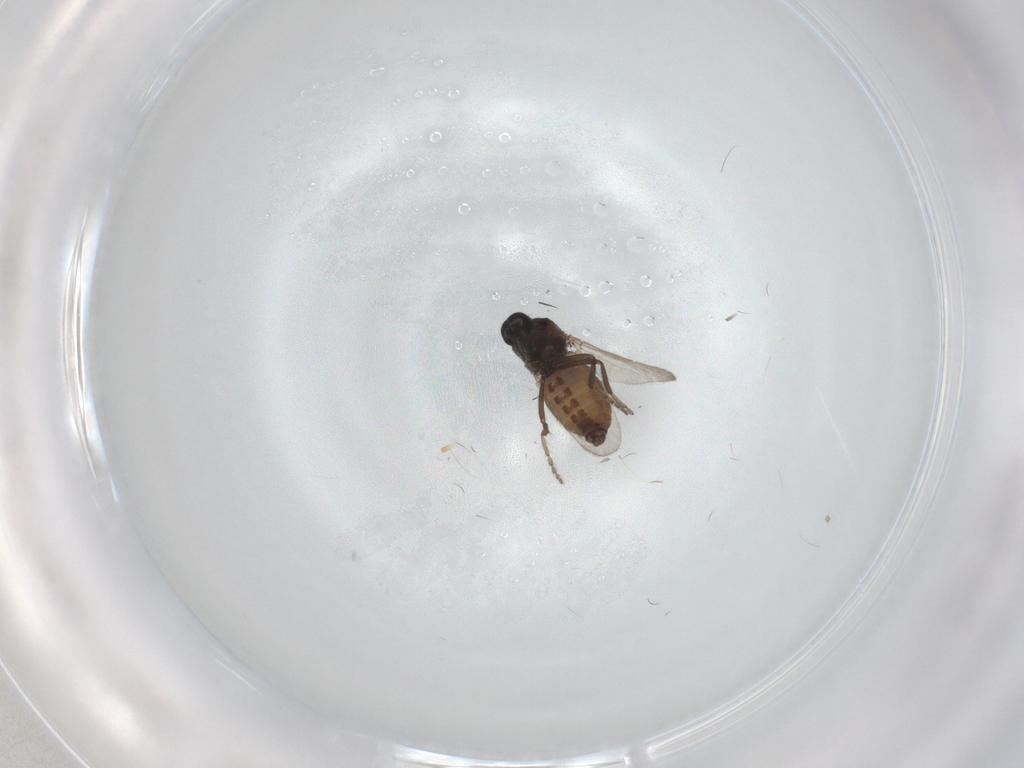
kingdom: Animalia
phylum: Arthropoda
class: Insecta
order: Diptera
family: Ceratopogonidae
